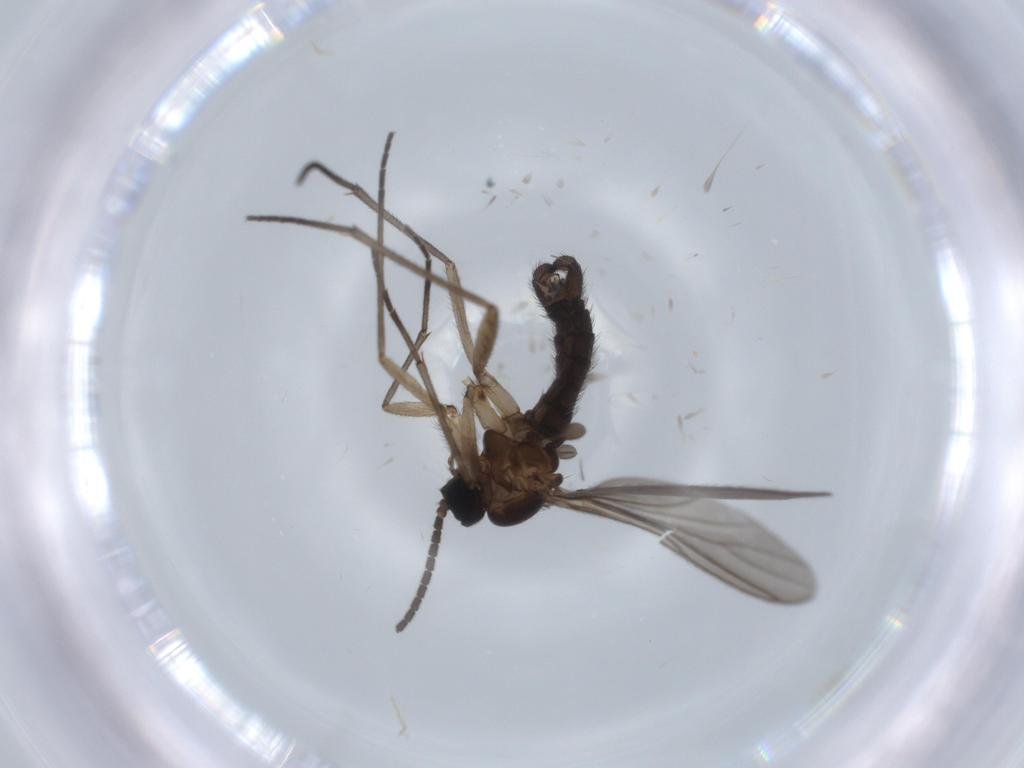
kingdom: Animalia
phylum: Arthropoda
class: Insecta
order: Diptera
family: Sciaridae
